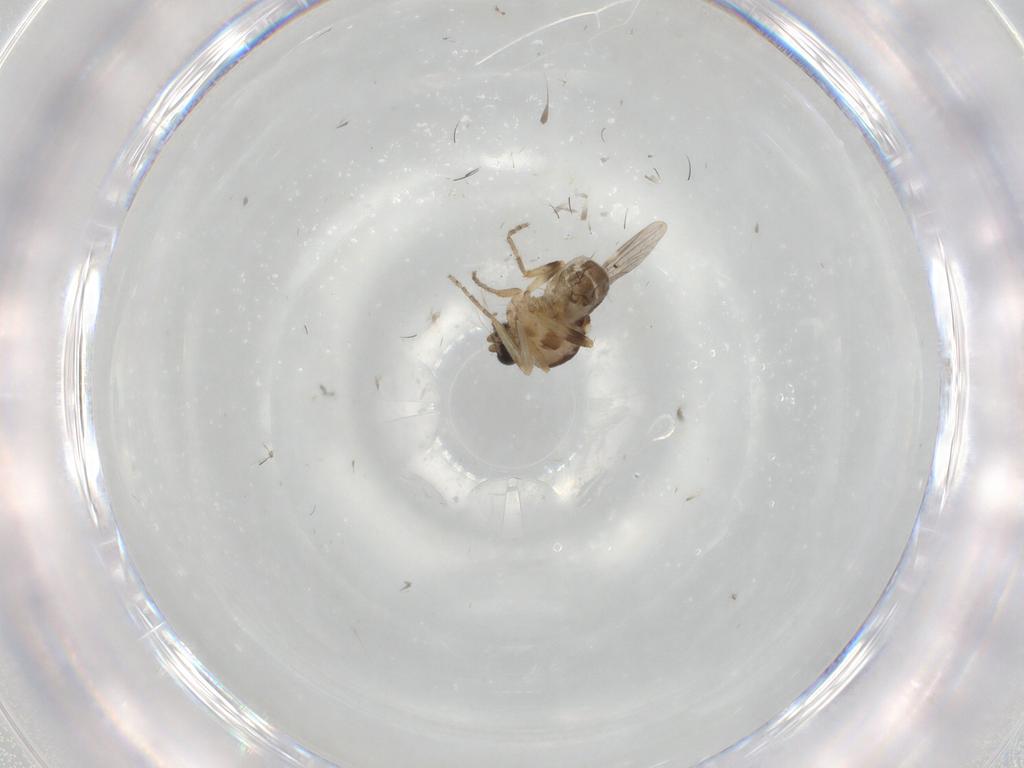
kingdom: Animalia
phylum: Arthropoda
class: Insecta
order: Diptera
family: Ceratopogonidae
